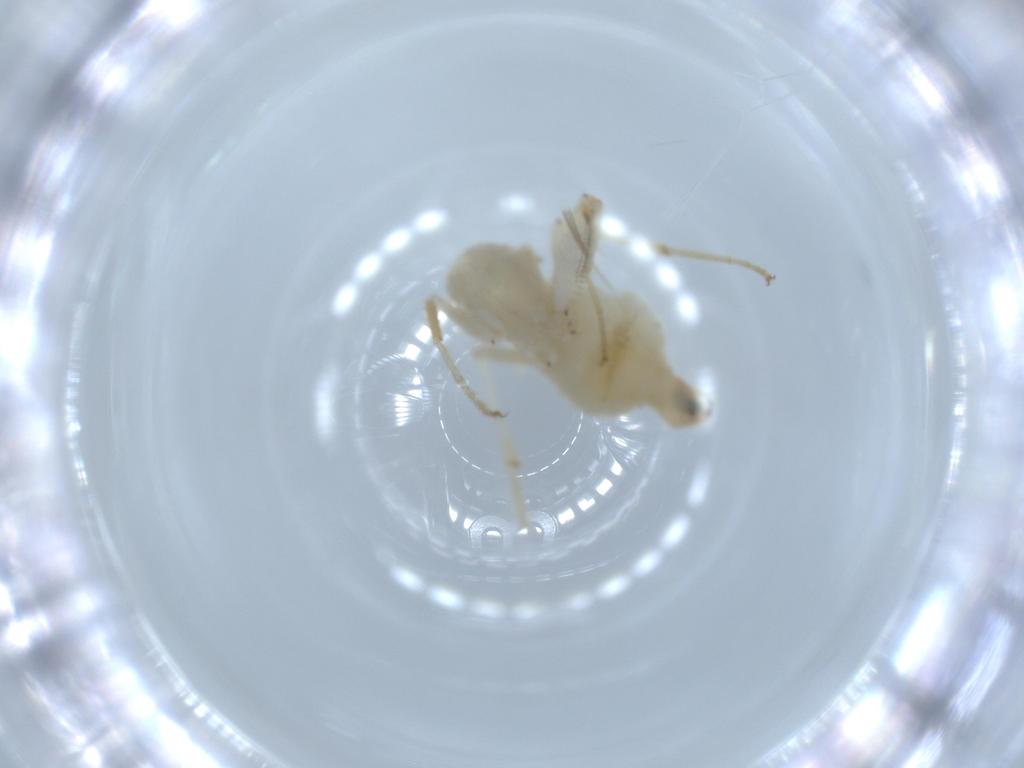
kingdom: Animalia
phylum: Arthropoda
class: Insecta
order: Diptera
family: Hybotidae
